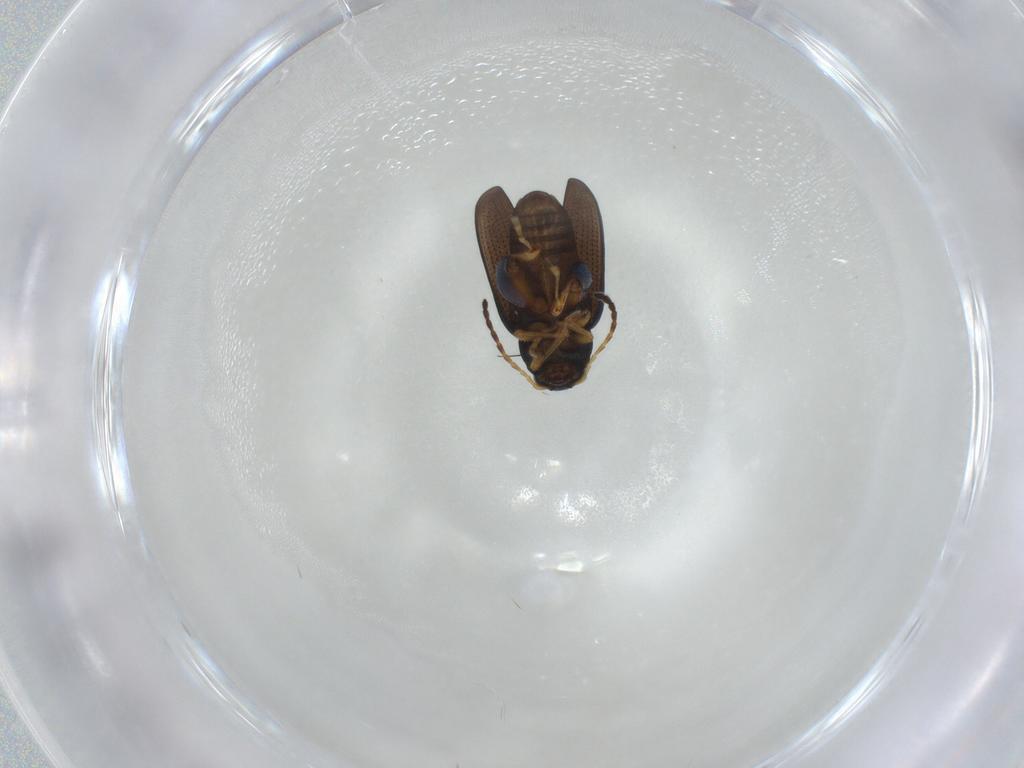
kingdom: Animalia
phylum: Arthropoda
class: Insecta
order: Coleoptera
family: Chrysomelidae
